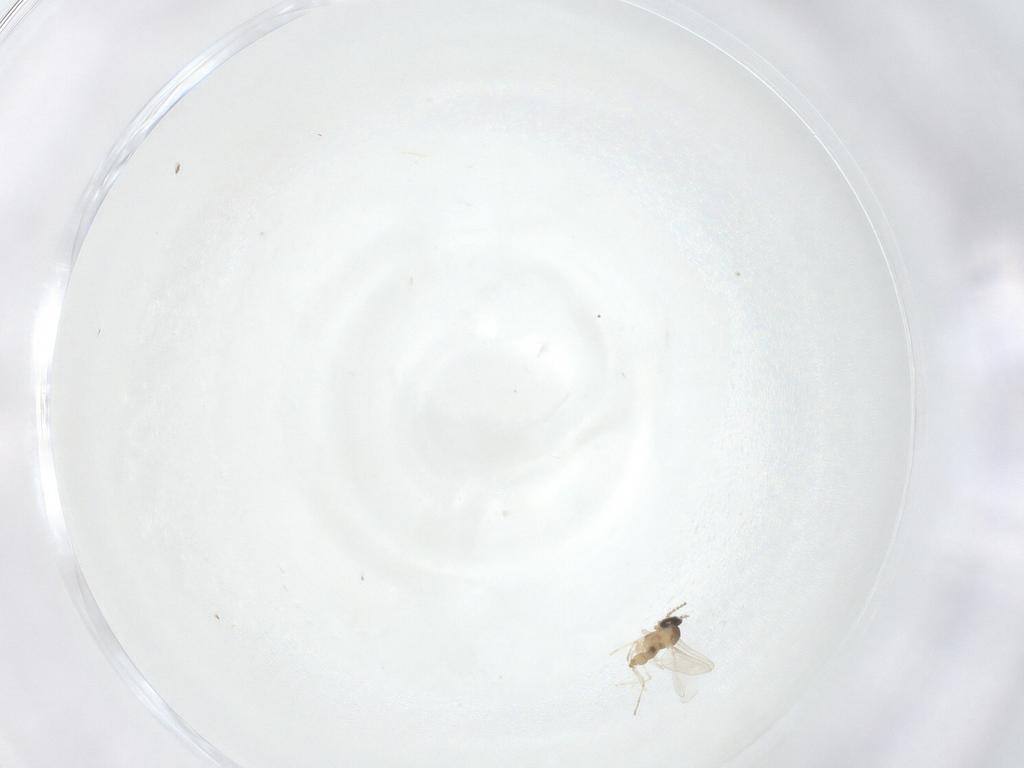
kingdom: Animalia
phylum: Arthropoda
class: Insecta
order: Diptera
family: Cecidomyiidae
